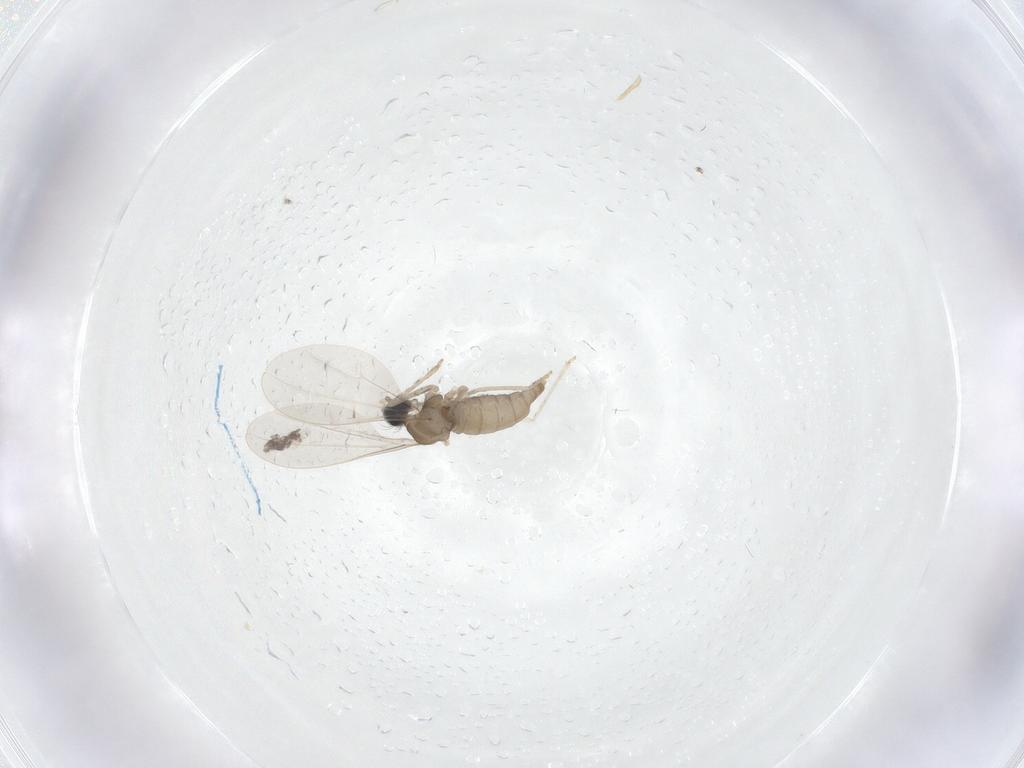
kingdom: Animalia
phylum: Arthropoda
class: Insecta
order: Diptera
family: Cecidomyiidae
